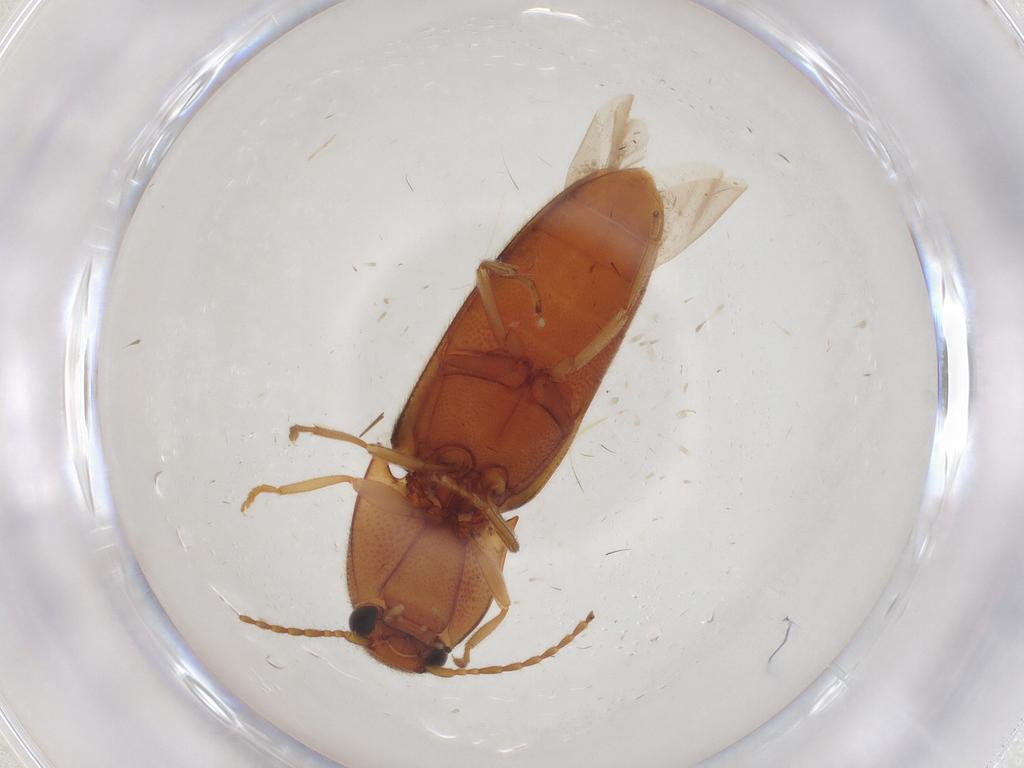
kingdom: Animalia
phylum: Arthropoda
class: Insecta
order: Coleoptera
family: Elateridae
